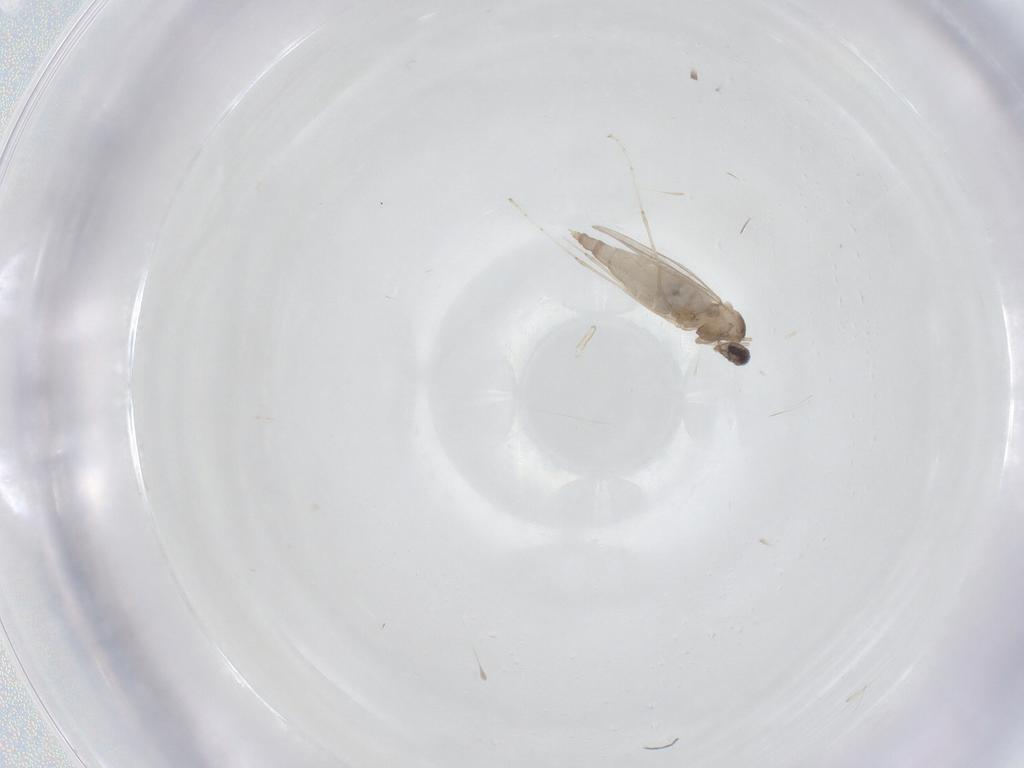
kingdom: Animalia
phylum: Arthropoda
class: Insecta
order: Diptera
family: Cecidomyiidae
